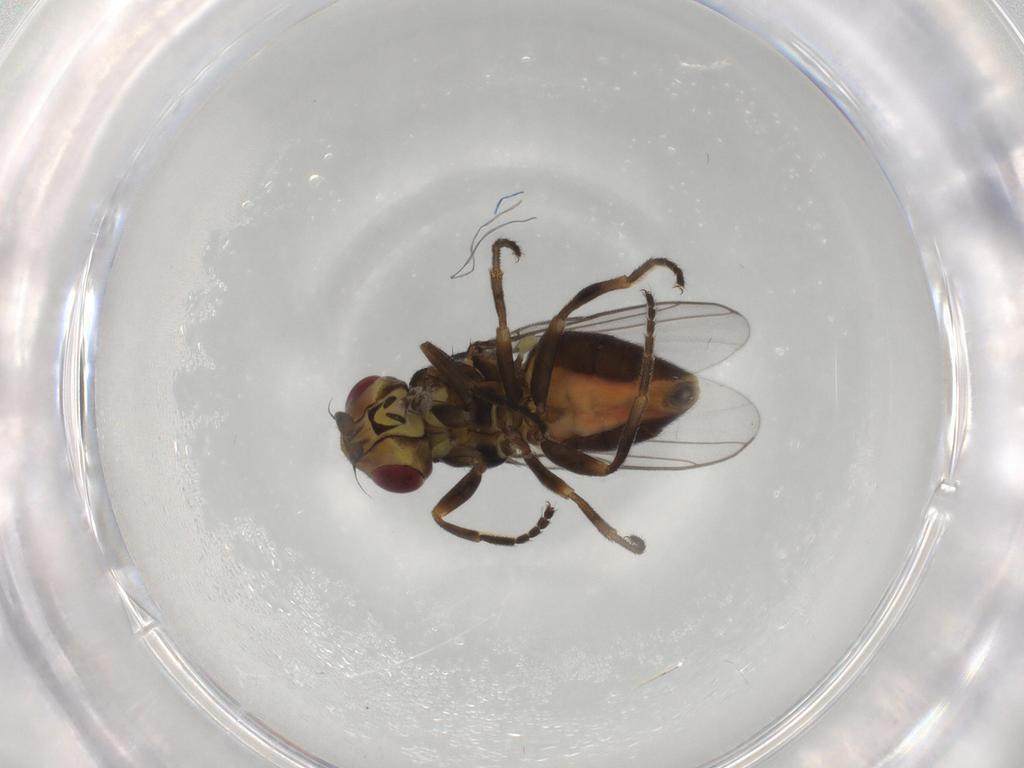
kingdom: Animalia
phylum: Arthropoda
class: Insecta
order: Diptera
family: Chloropidae
